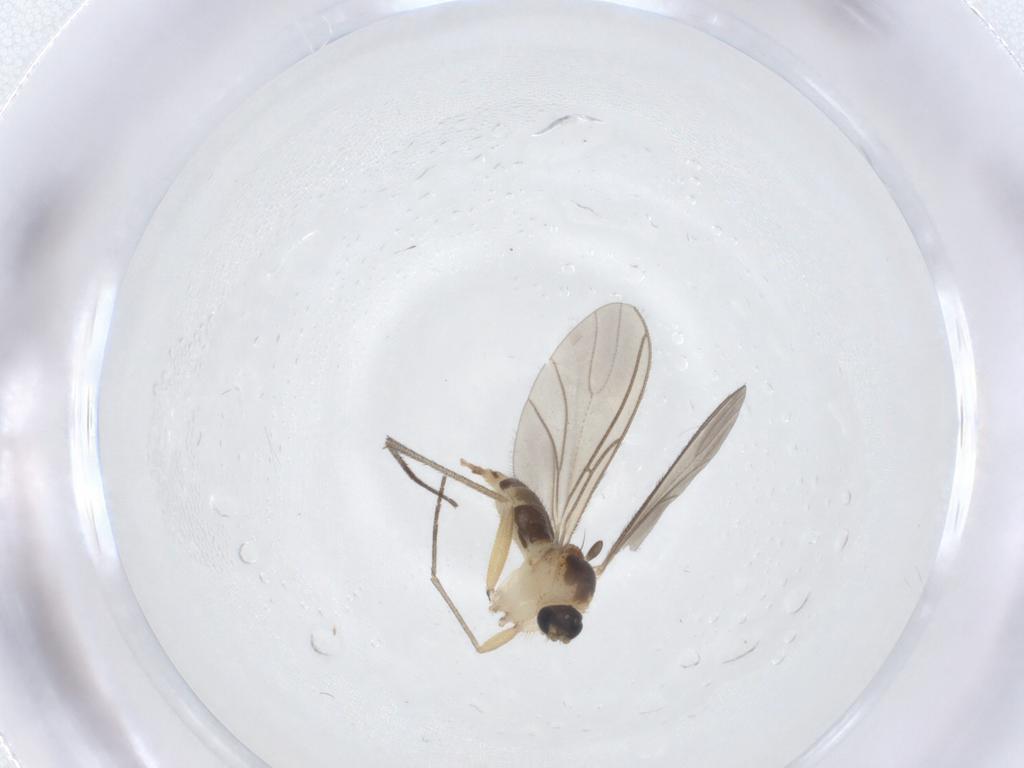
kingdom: Animalia
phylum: Arthropoda
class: Insecta
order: Diptera
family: Sciaridae
